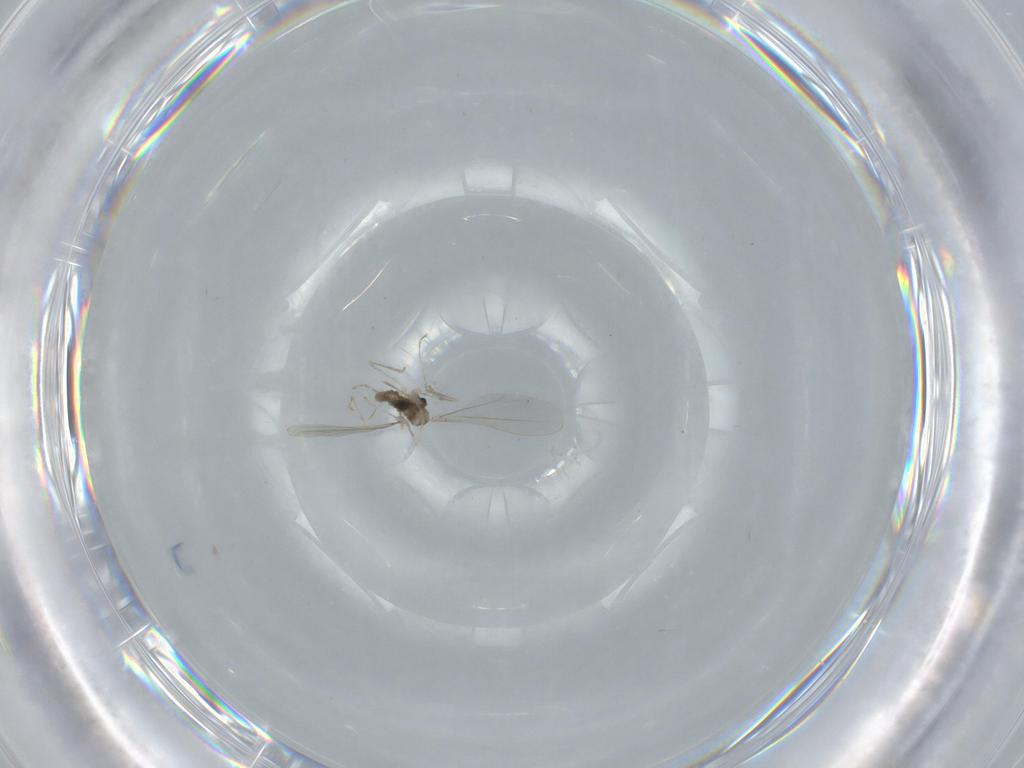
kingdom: Animalia
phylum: Arthropoda
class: Insecta
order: Diptera
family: Cecidomyiidae
